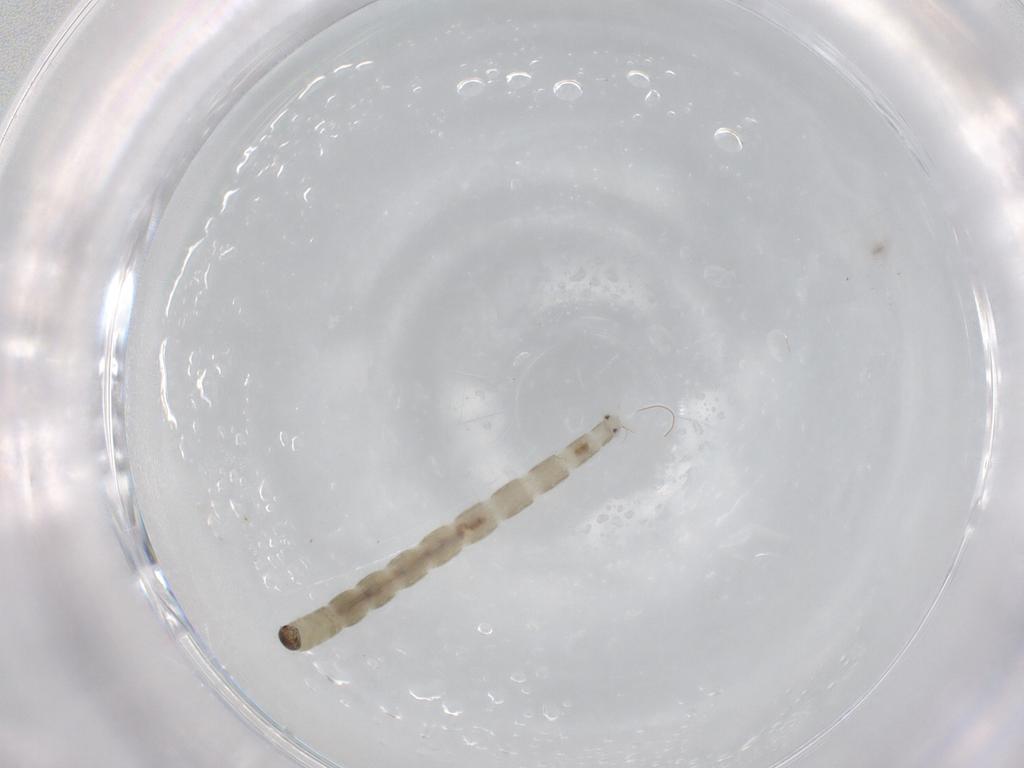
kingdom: Animalia
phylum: Arthropoda
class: Insecta
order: Diptera
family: Chironomidae
